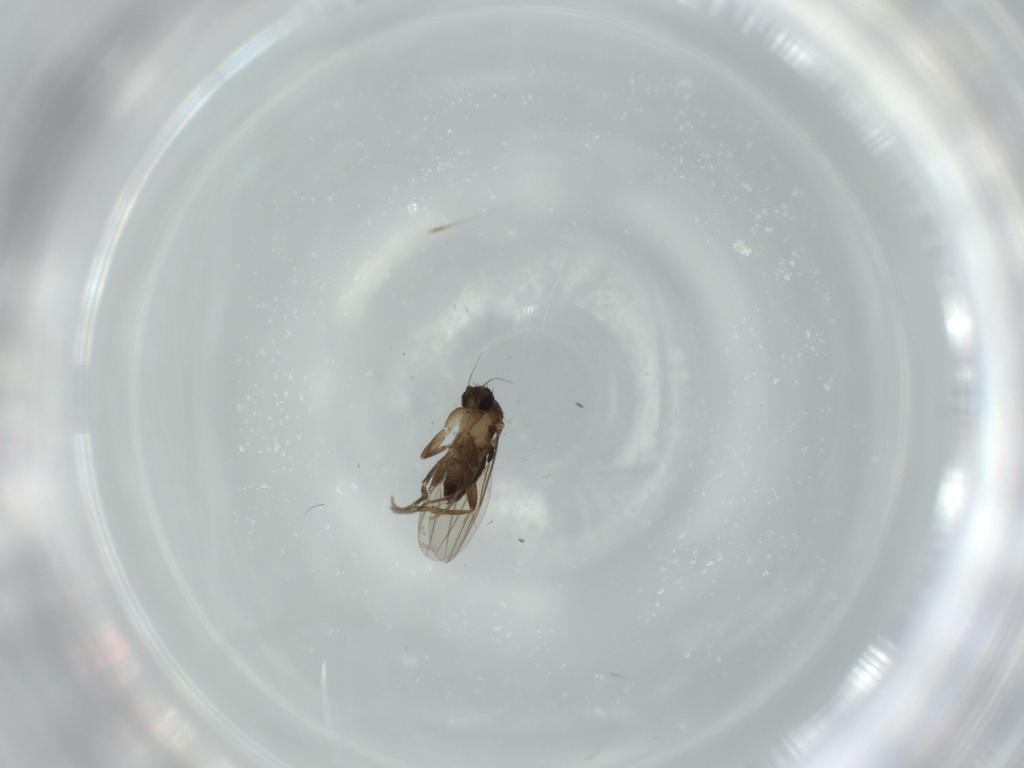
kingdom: Animalia
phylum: Arthropoda
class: Insecta
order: Diptera
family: Phoridae
